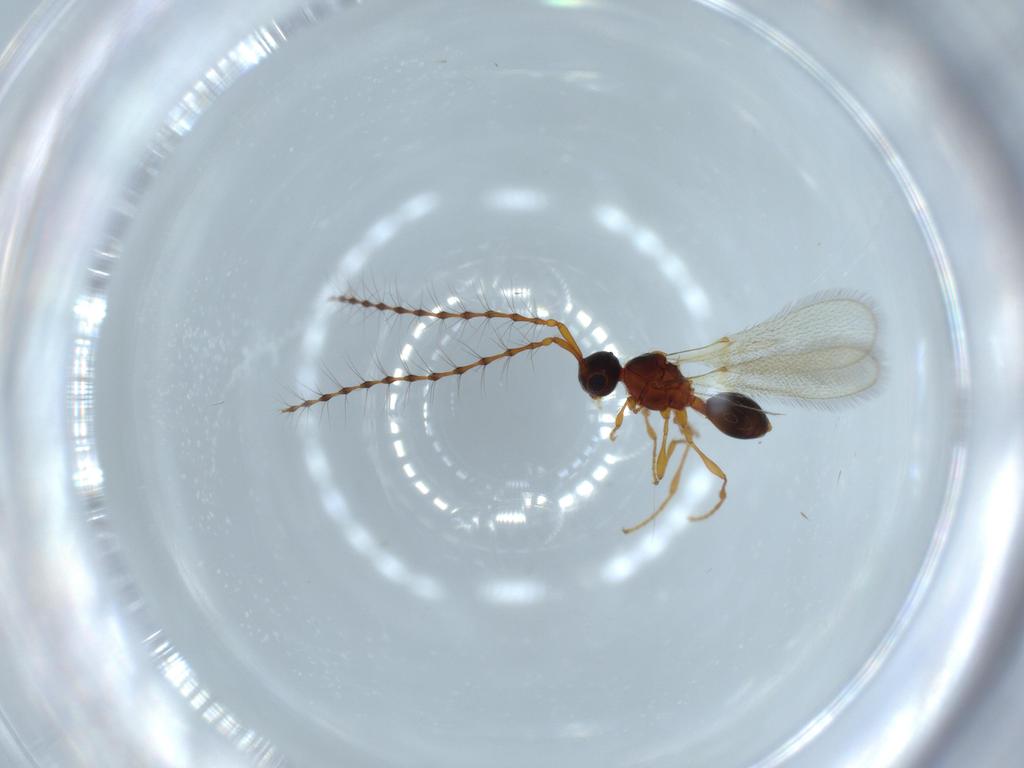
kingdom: Animalia
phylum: Arthropoda
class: Insecta
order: Hymenoptera
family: Diapriidae
